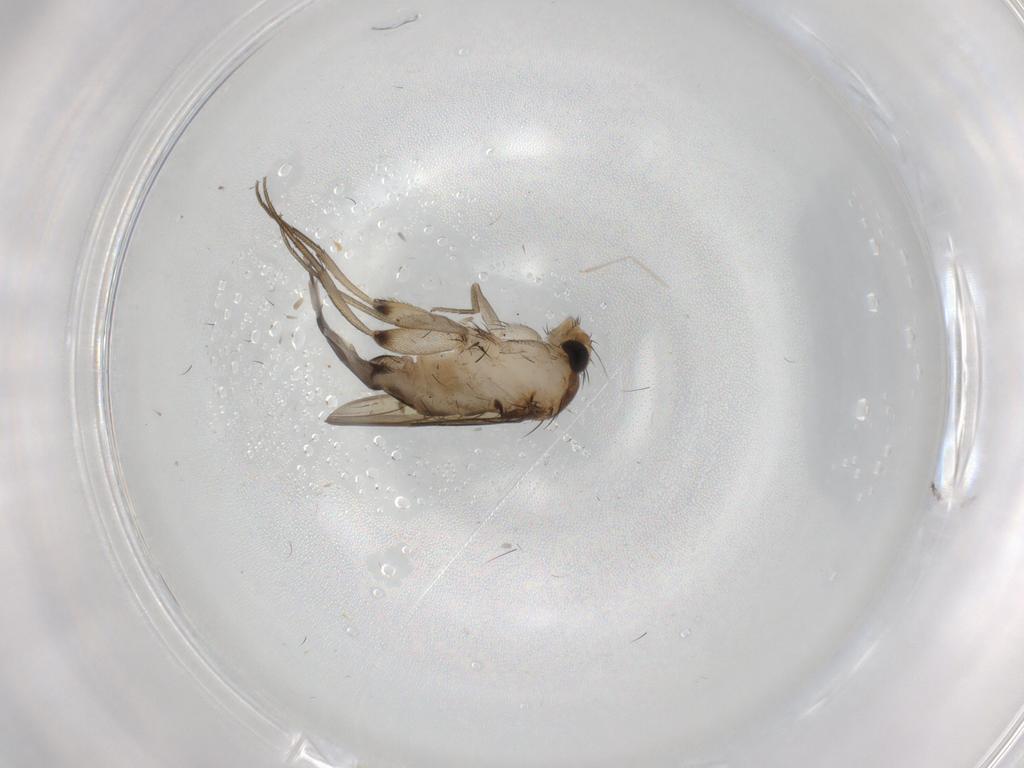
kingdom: Animalia
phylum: Arthropoda
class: Insecta
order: Diptera
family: Phoridae
